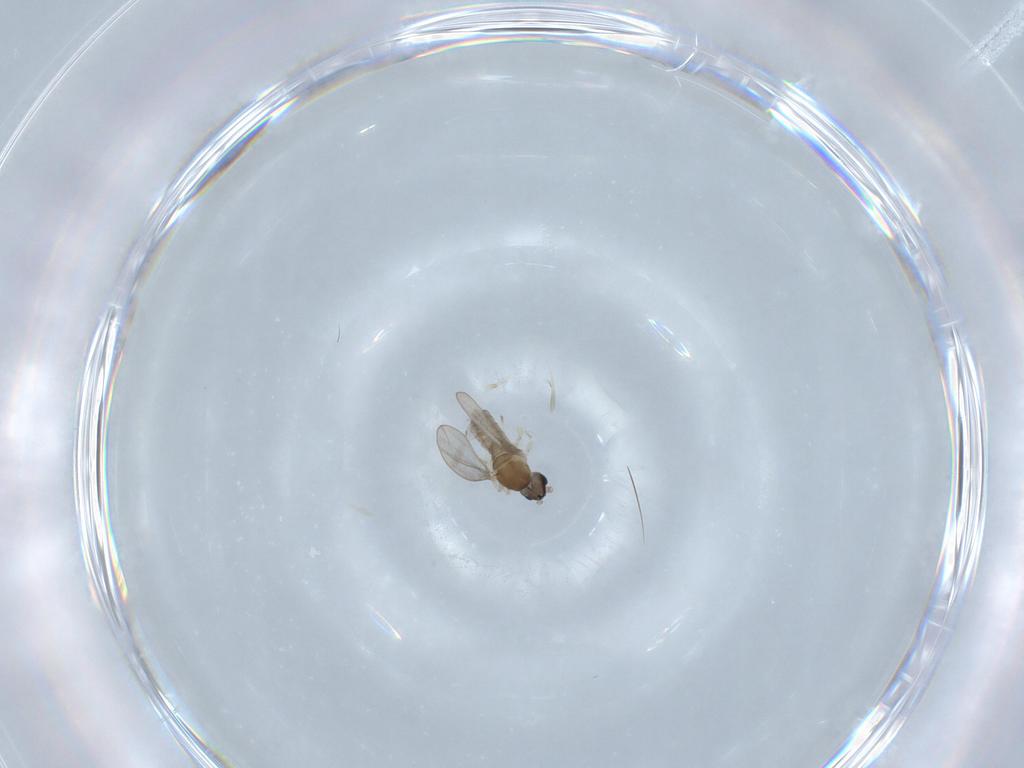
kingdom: Animalia
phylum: Arthropoda
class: Insecta
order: Diptera
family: Cecidomyiidae
